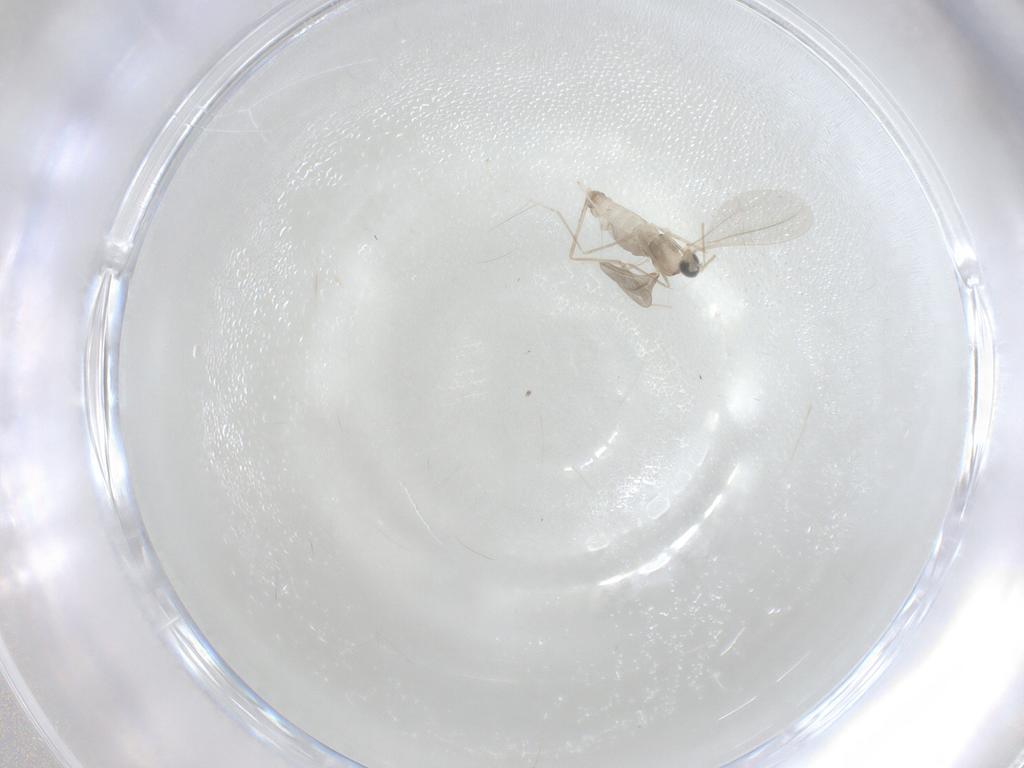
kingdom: Animalia
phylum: Arthropoda
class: Insecta
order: Diptera
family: Cecidomyiidae
